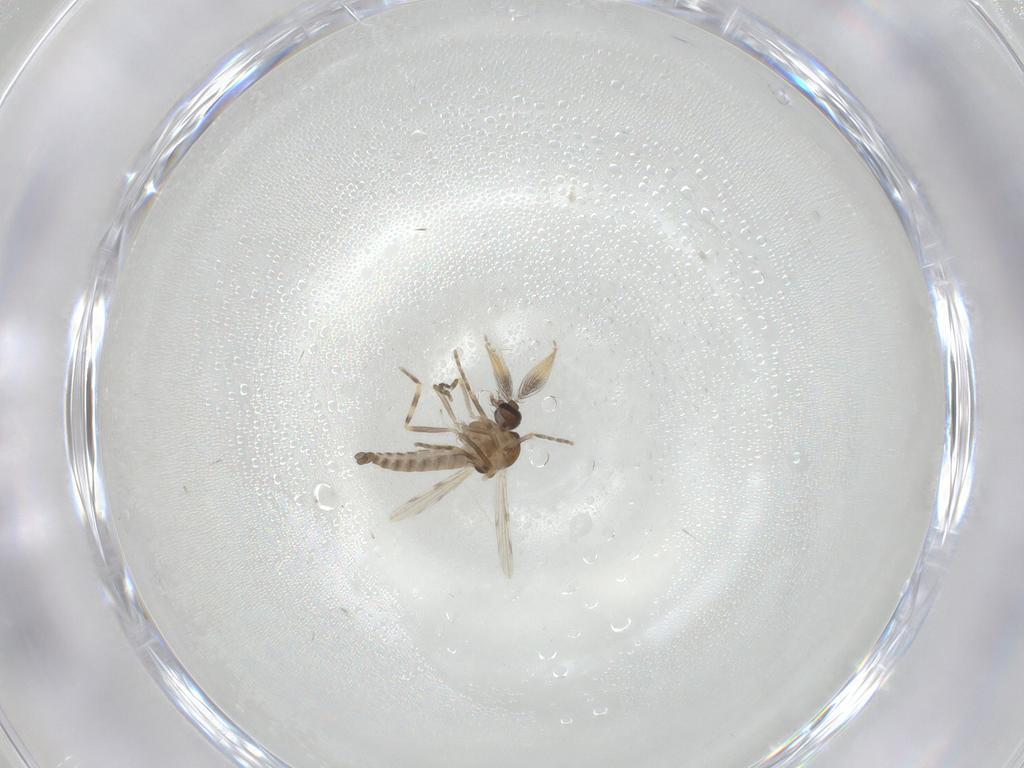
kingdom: Animalia
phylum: Arthropoda
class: Insecta
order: Diptera
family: Ceratopogonidae
